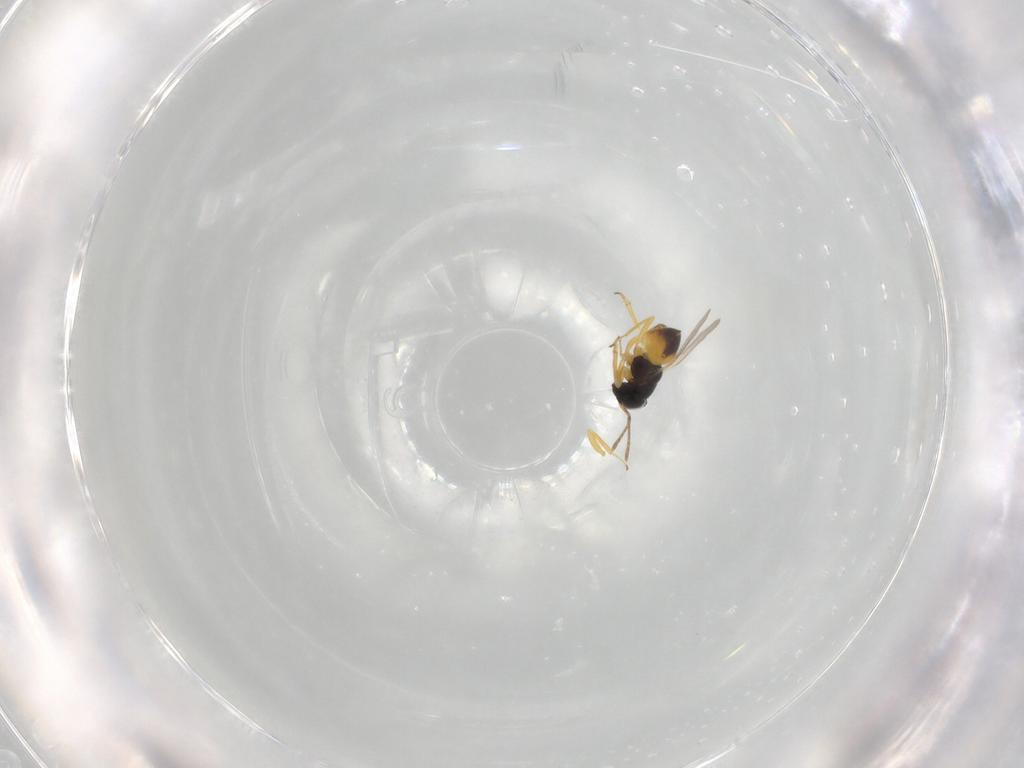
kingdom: Animalia
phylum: Arthropoda
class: Insecta
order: Hymenoptera
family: Encyrtidae
